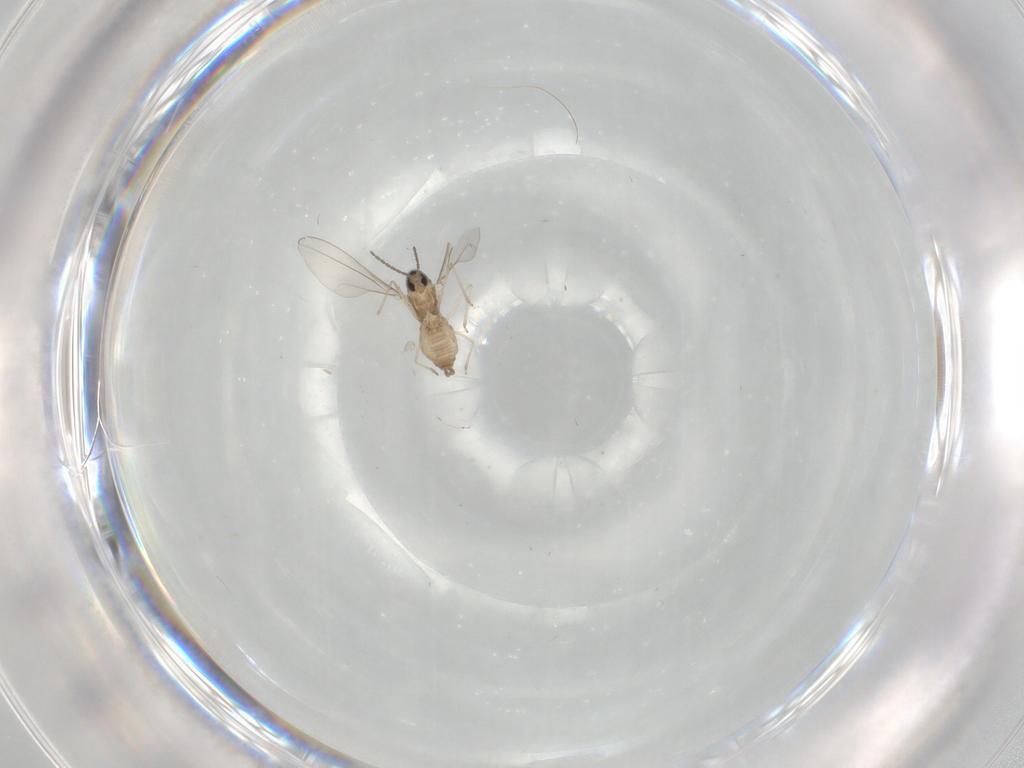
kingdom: Animalia
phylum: Arthropoda
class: Insecta
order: Diptera
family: Cecidomyiidae
